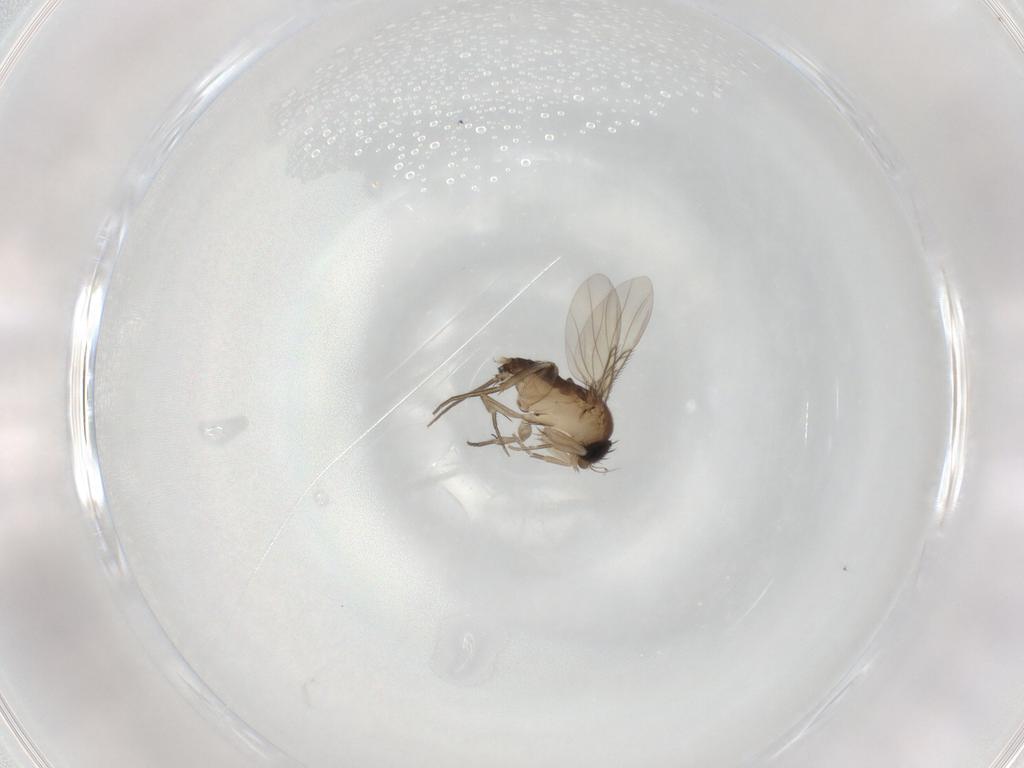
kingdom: Animalia
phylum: Arthropoda
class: Insecta
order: Diptera
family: Phoridae
